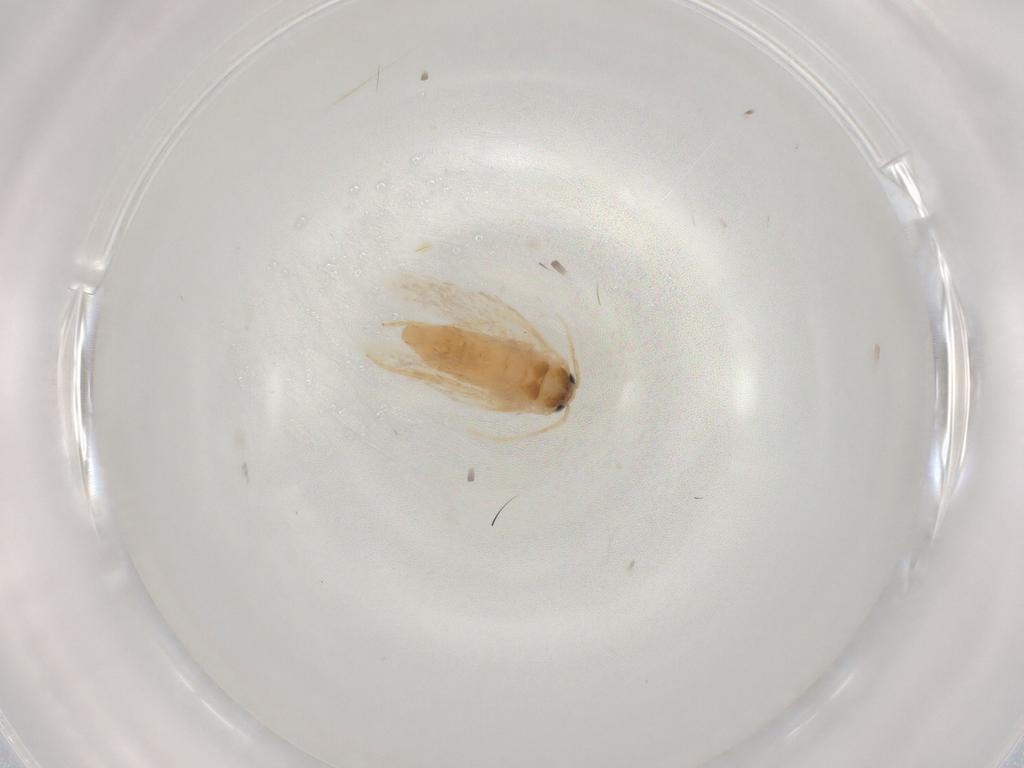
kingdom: Animalia
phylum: Arthropoda
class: Insecta
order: Lepidoptera
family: Nepticulidae
